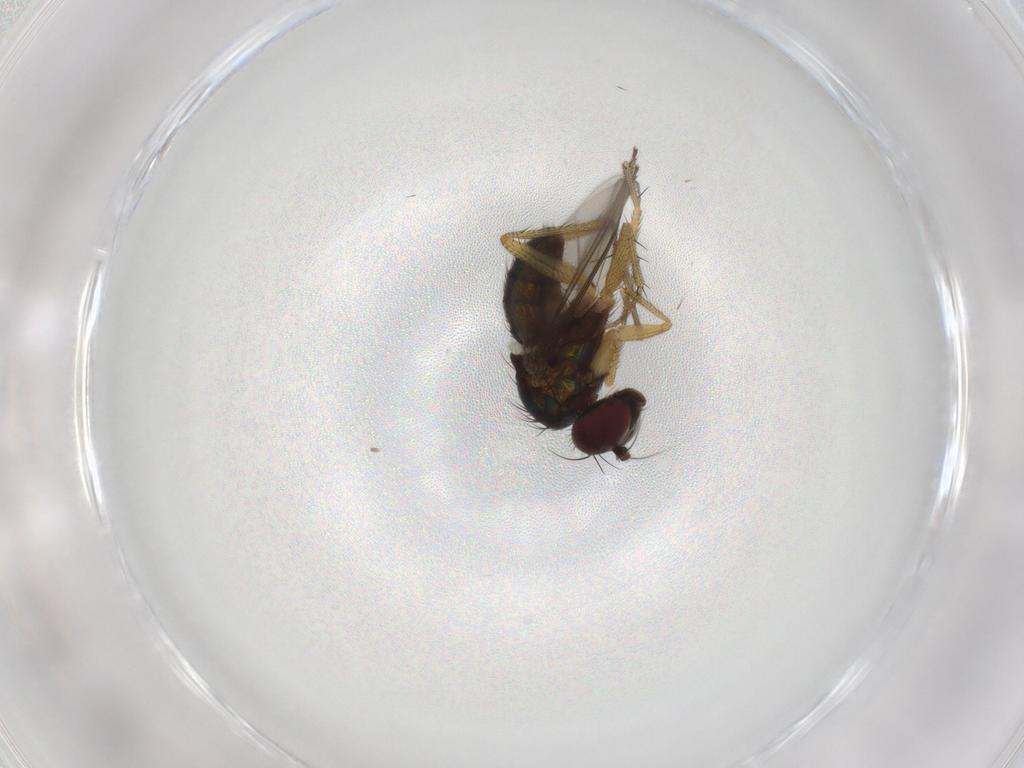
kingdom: Animalia
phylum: Arthropoda
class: Insecta
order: Diptera
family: Chironomidae
